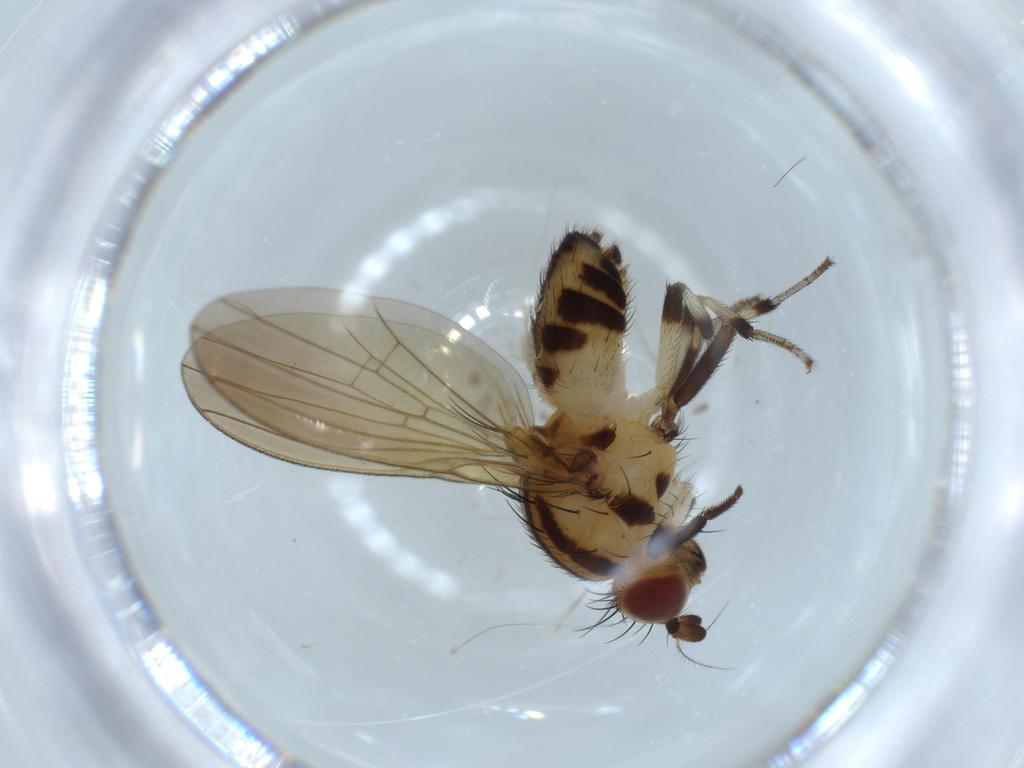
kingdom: Animalia
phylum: Arthropoda
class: Insecta
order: Diptera
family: Lauxaniidae
